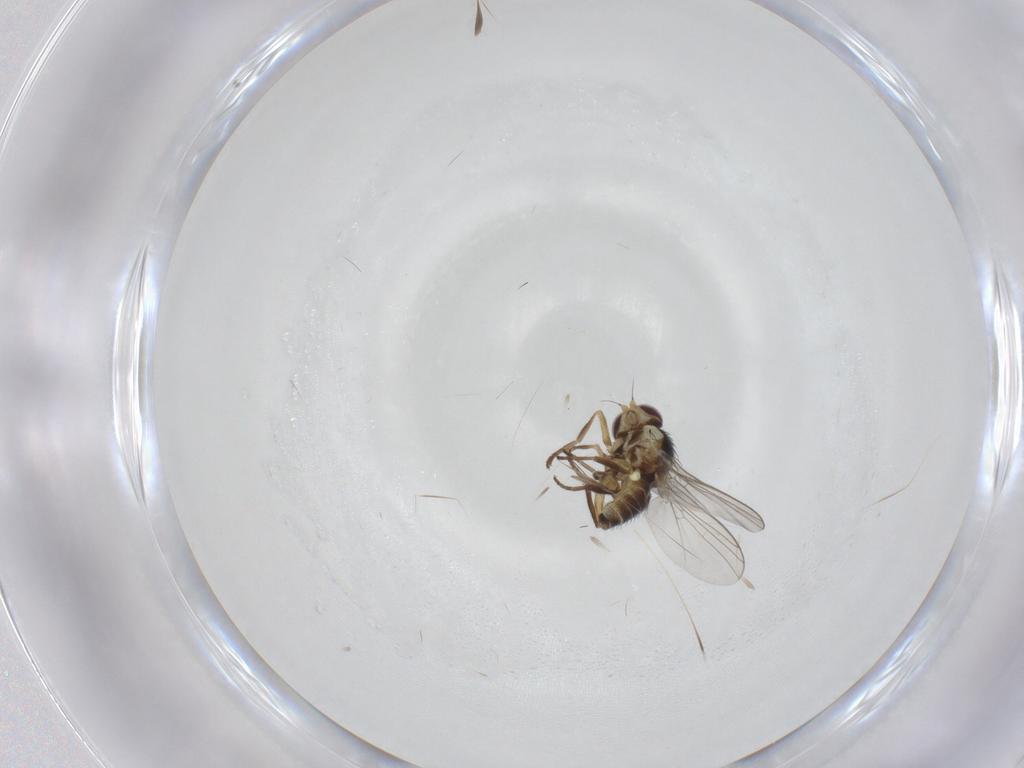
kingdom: Animalia
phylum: Arthropoda
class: Insecta
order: Diptera
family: Agromyzidae
